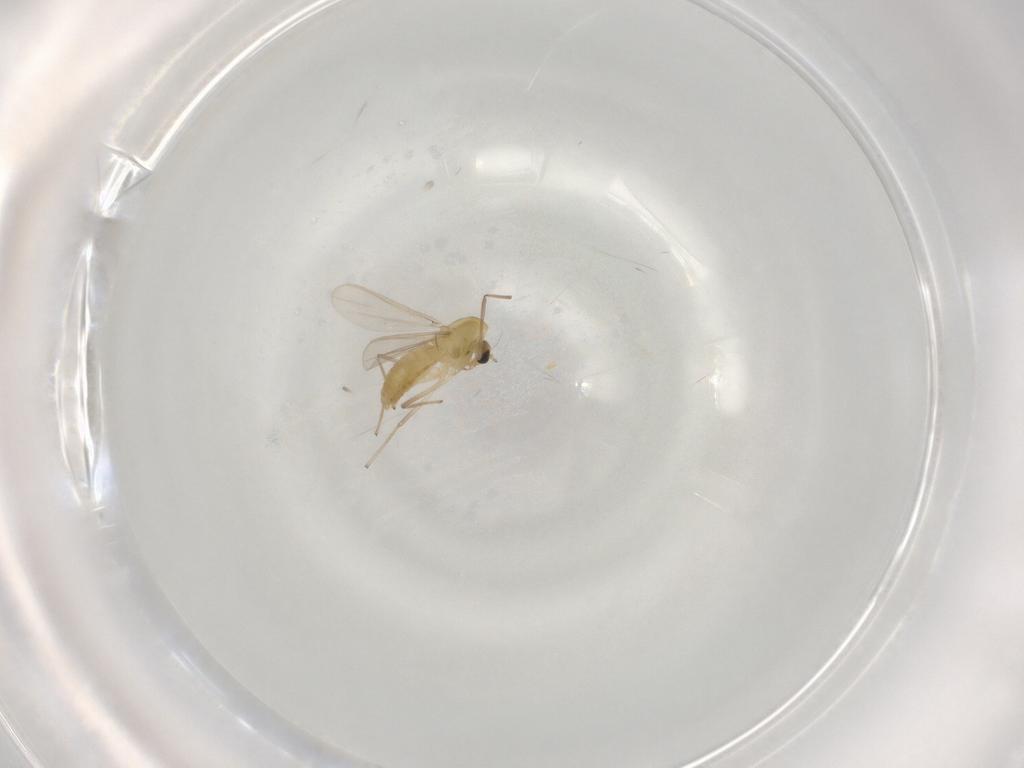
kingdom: Animalia
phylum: Arthropoda
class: Insecta
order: Diptera
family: Chironomidae
